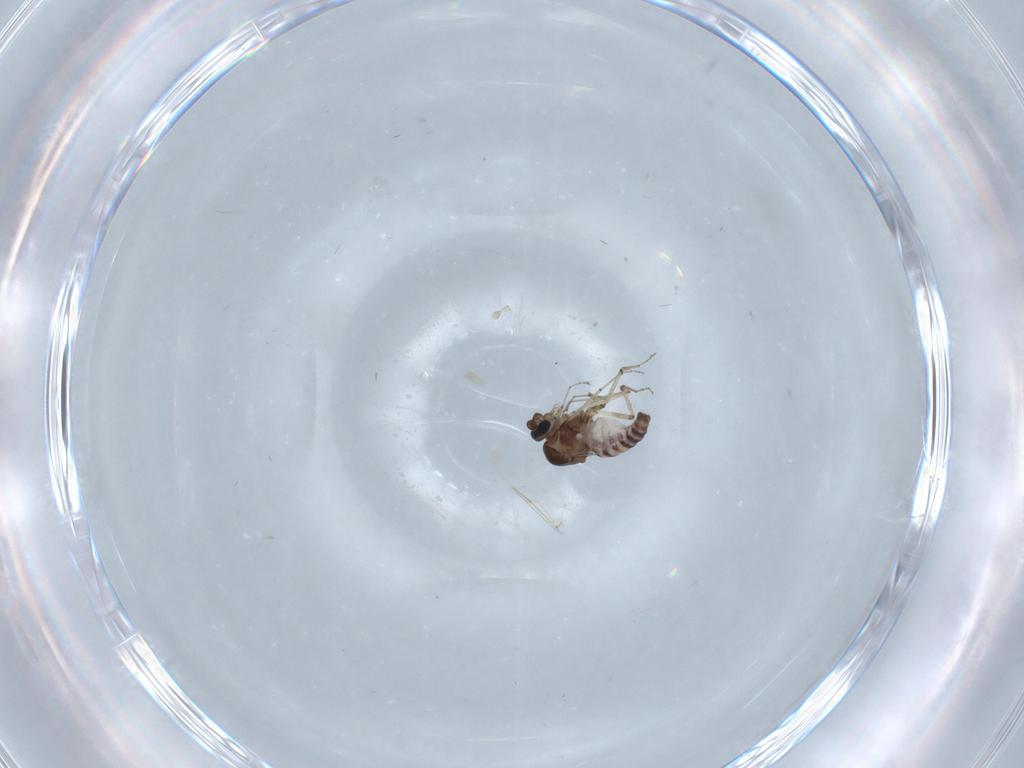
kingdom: Animalia
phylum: Arthropoda
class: Insecta
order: Diptera
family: Ceratopogonidae
